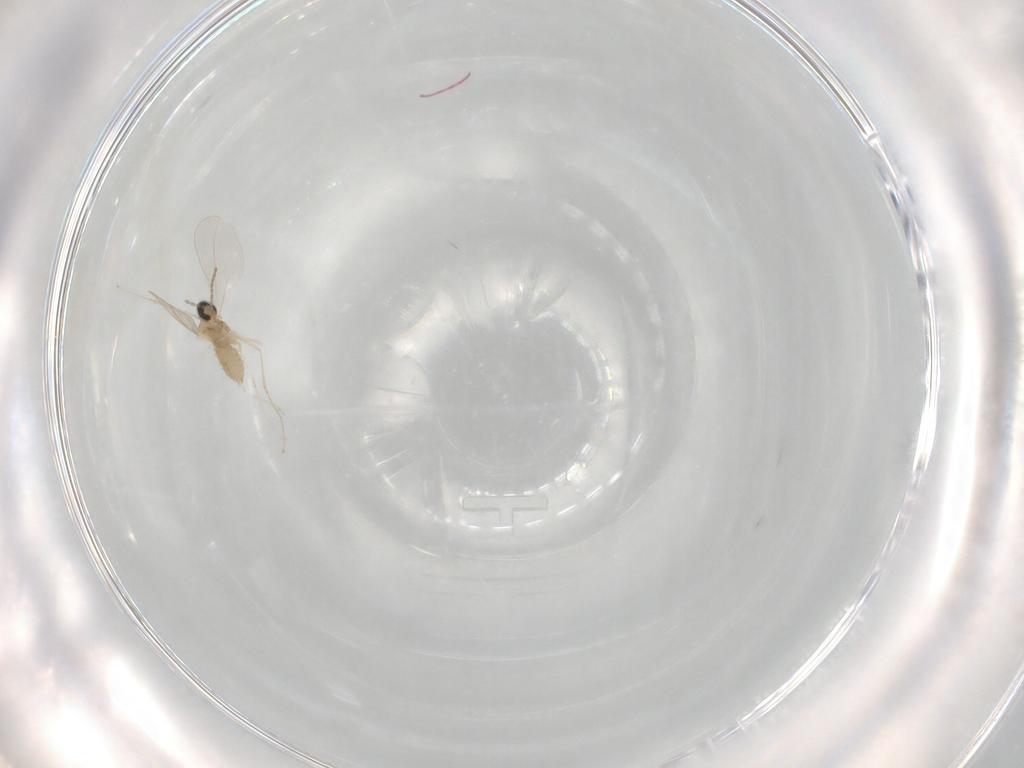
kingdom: Animalia
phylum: Arthropoda
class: Insecta
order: Diptera
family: Cecidomyiidae
